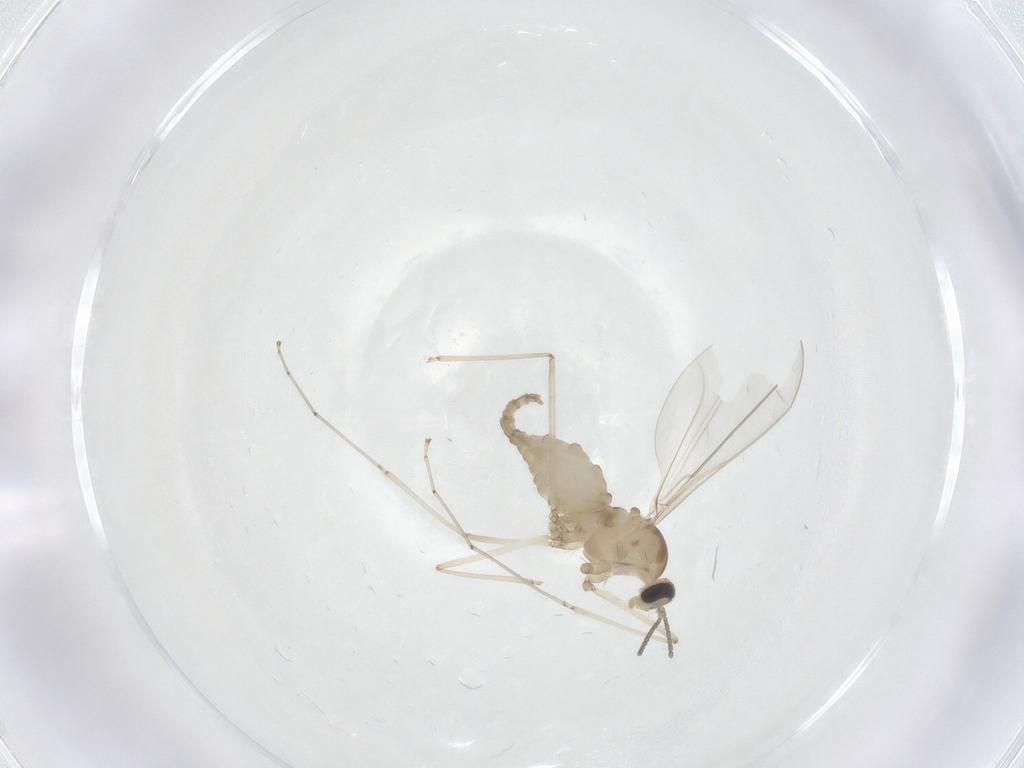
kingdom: Animalia
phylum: Arthropoda
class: Insecta
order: Diptera
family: Cecidomyiidae
